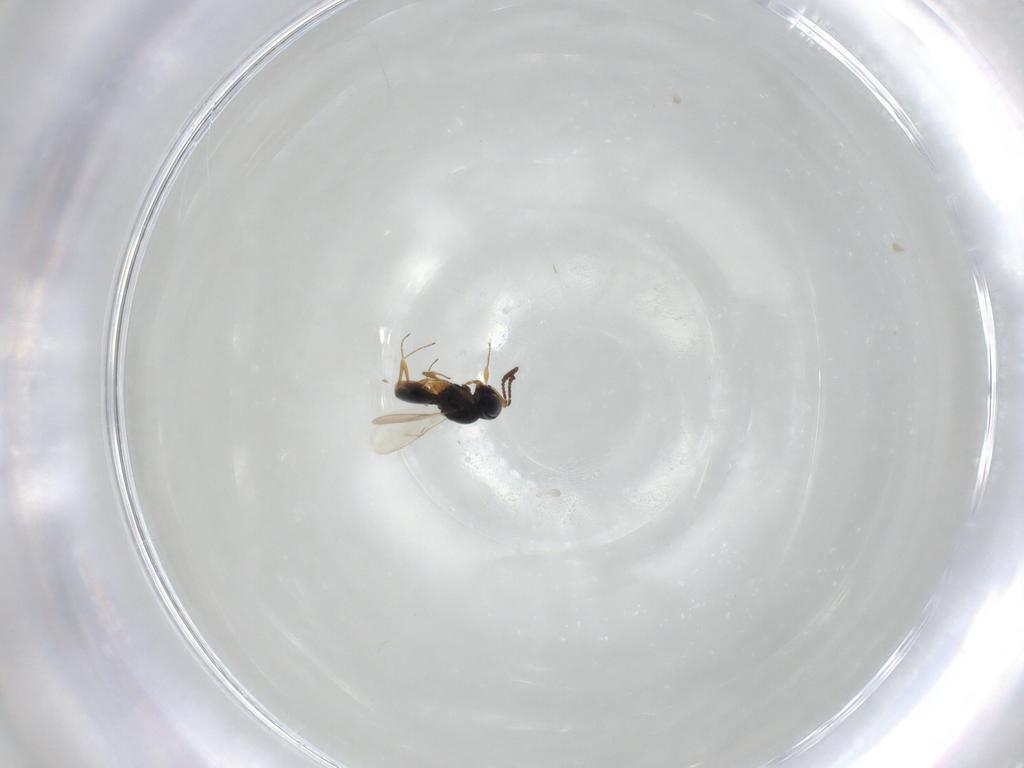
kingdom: Animalia
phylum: Arthropoda
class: Insecta
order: Hymenoptera
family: Scelionidae
